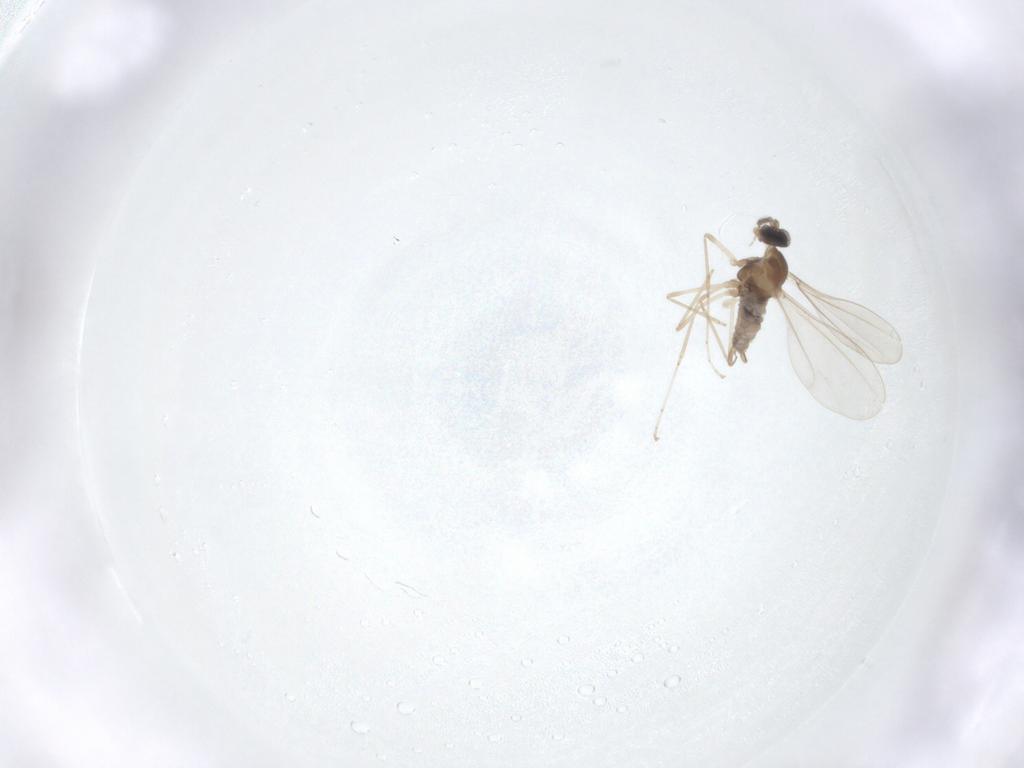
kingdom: Animalia
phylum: Arthropoda
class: Insecta
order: Diptera
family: Cecidomyiidae
